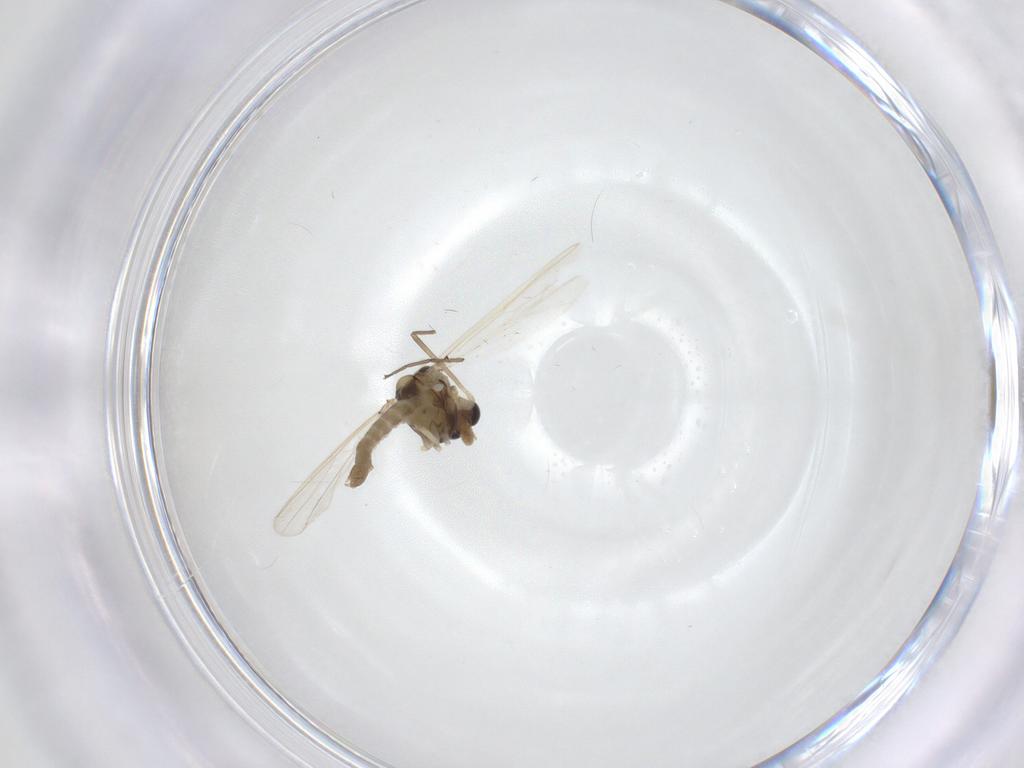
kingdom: Animalia
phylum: Arthropoda
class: Insecta
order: Diptera
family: Chironomidae
